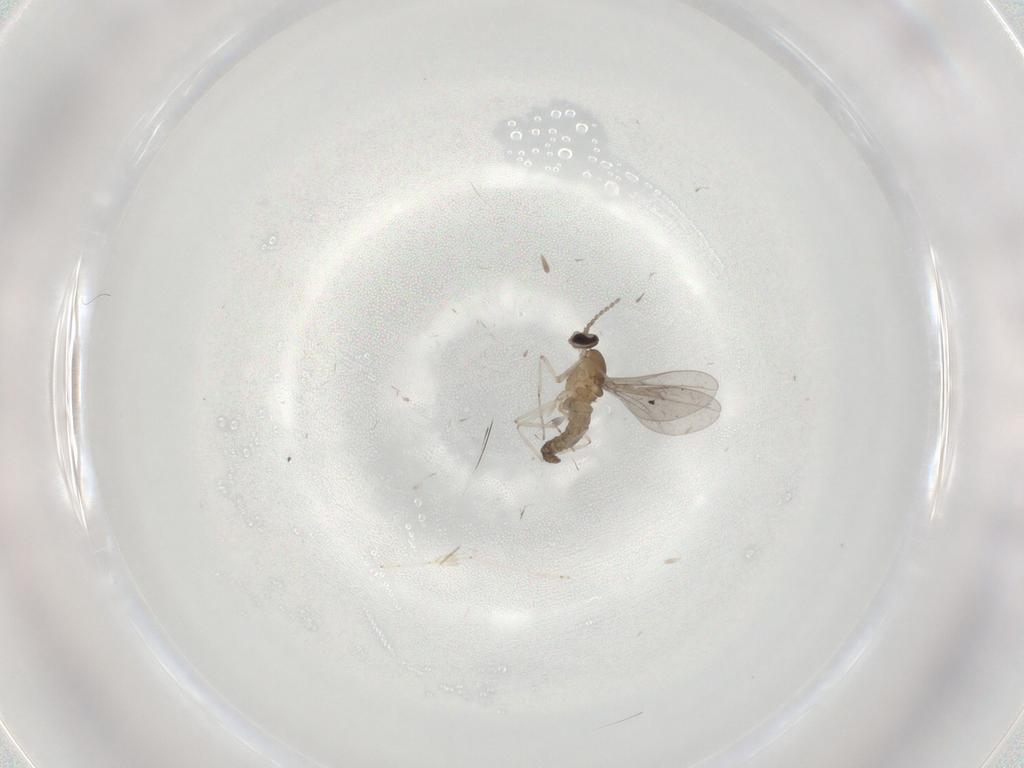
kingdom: Animalia
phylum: Arthropoda
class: Insecta
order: Diptera
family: Cecidomyiidae
